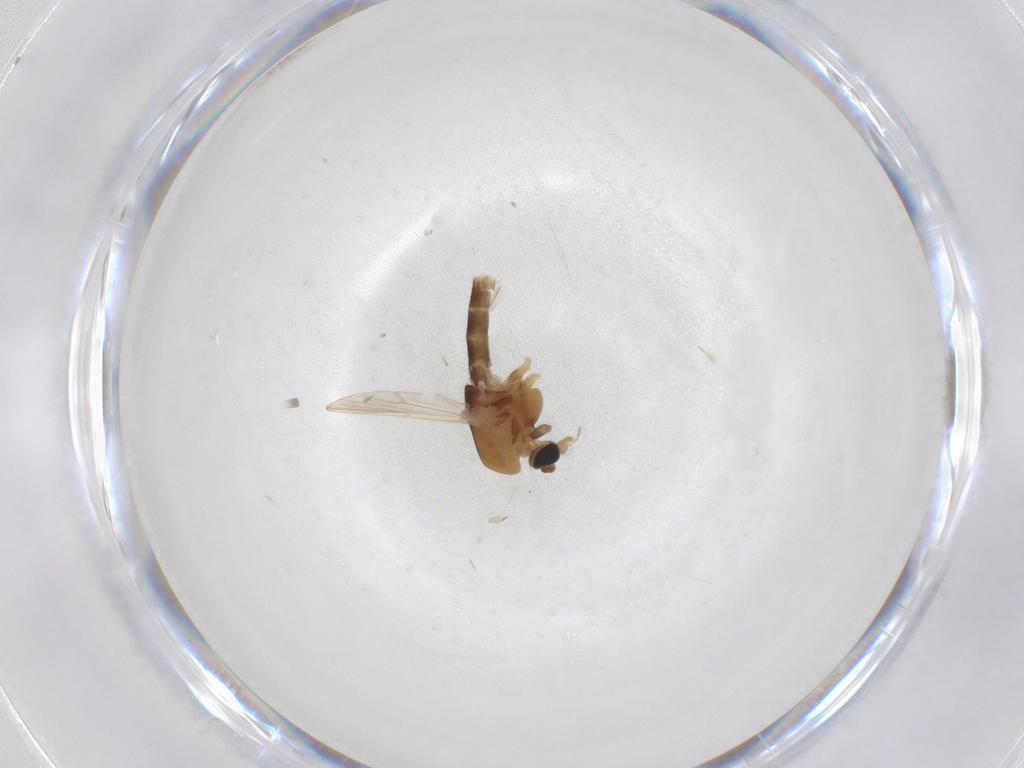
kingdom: Animalia
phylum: Arthropoda
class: Insecta
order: Diptera
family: Chironomidae
